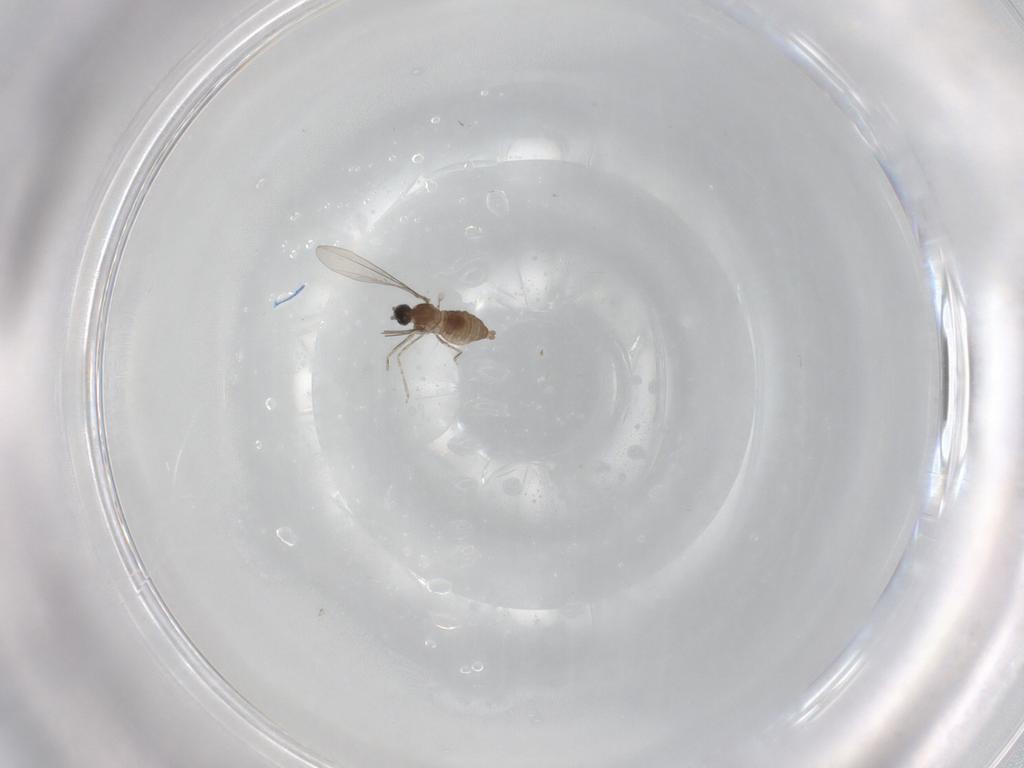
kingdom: Animalia
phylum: Arthropoda
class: Insecta
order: Diptera
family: Cecidomyiidae
